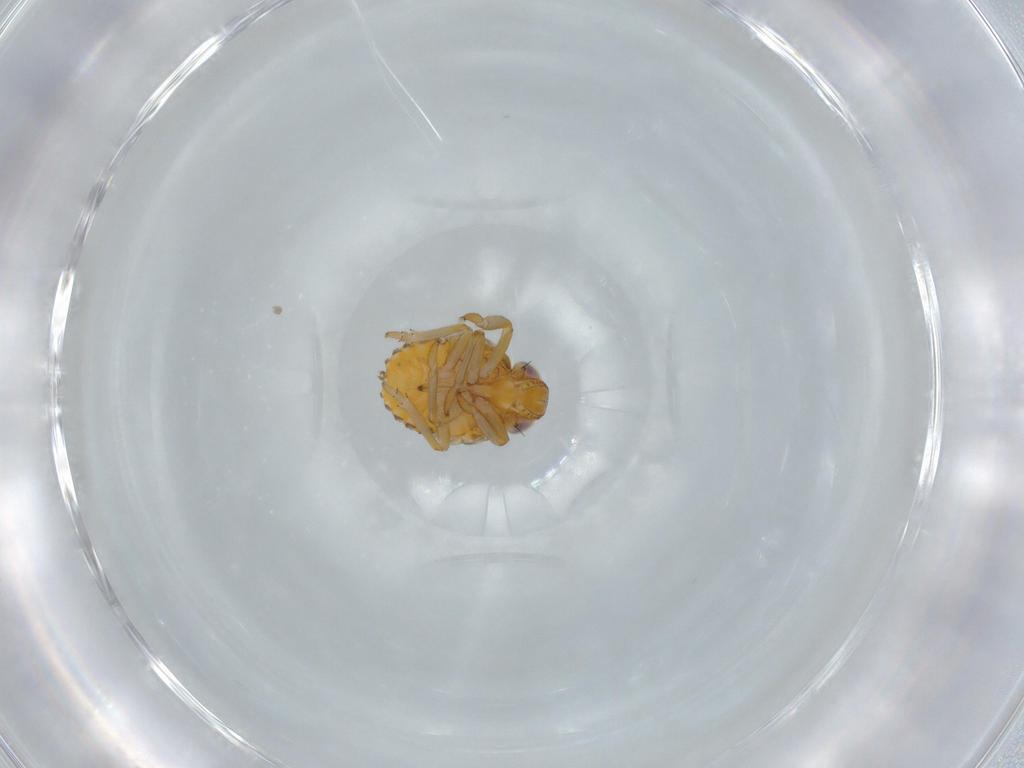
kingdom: Animalia
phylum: Arthropoda
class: Insecta
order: Hemiptera
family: Issidae
